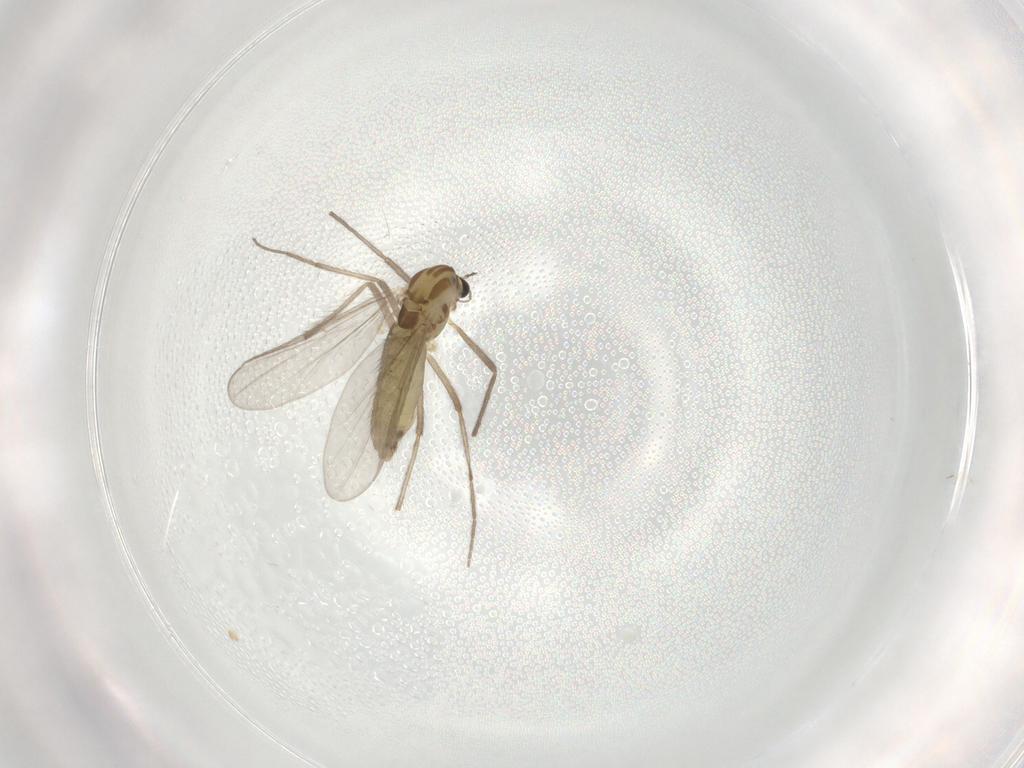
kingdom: Animalia
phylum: Arthropoda
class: Insecta
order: Diptera
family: Chironomidae
